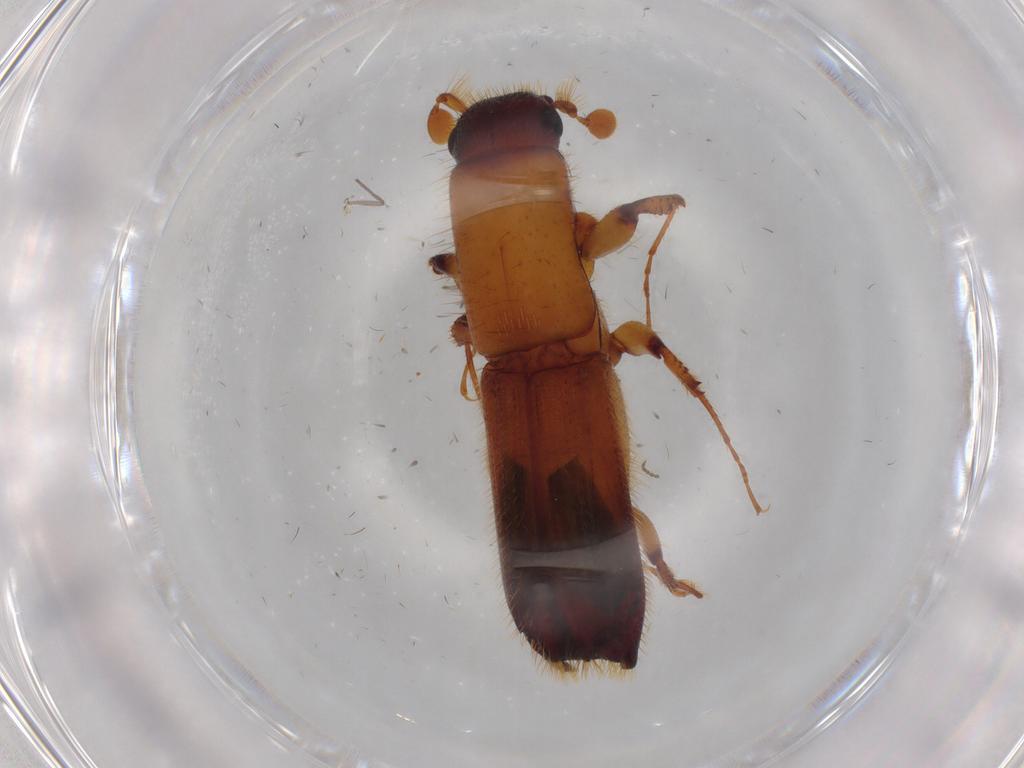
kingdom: Animalia
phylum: Arthropoda
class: Insecta
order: Coleoptera
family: Curculionidae
